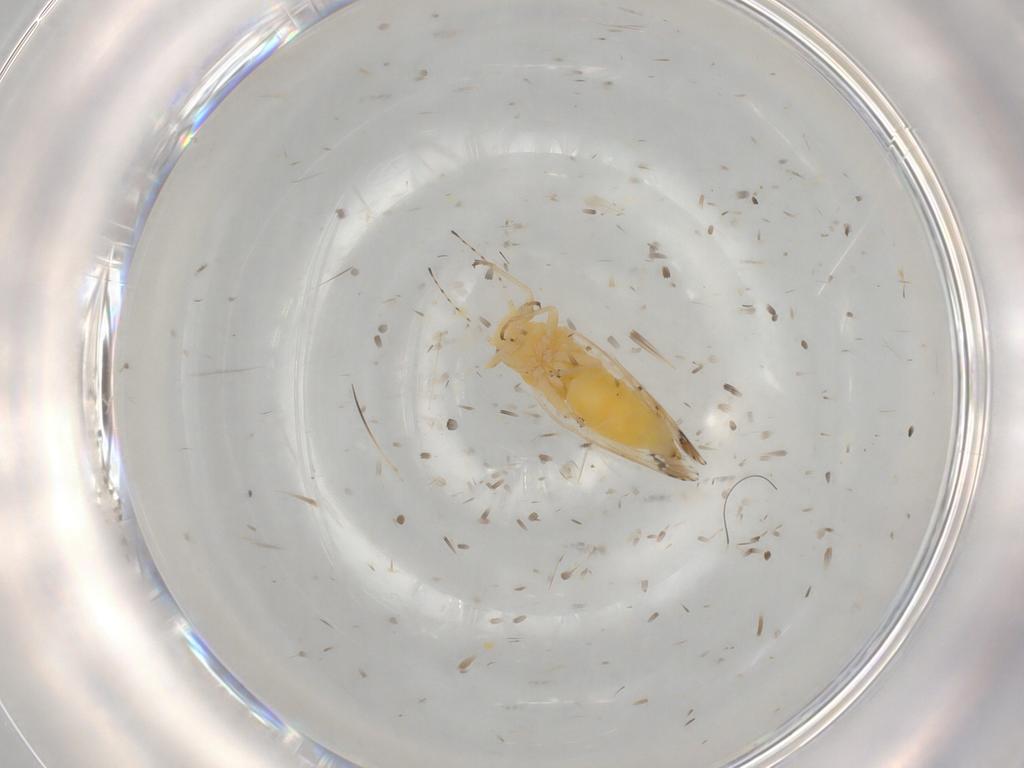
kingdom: Animalia
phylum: Arthropoda
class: Insecta
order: Hemiptera
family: Psyllidae
